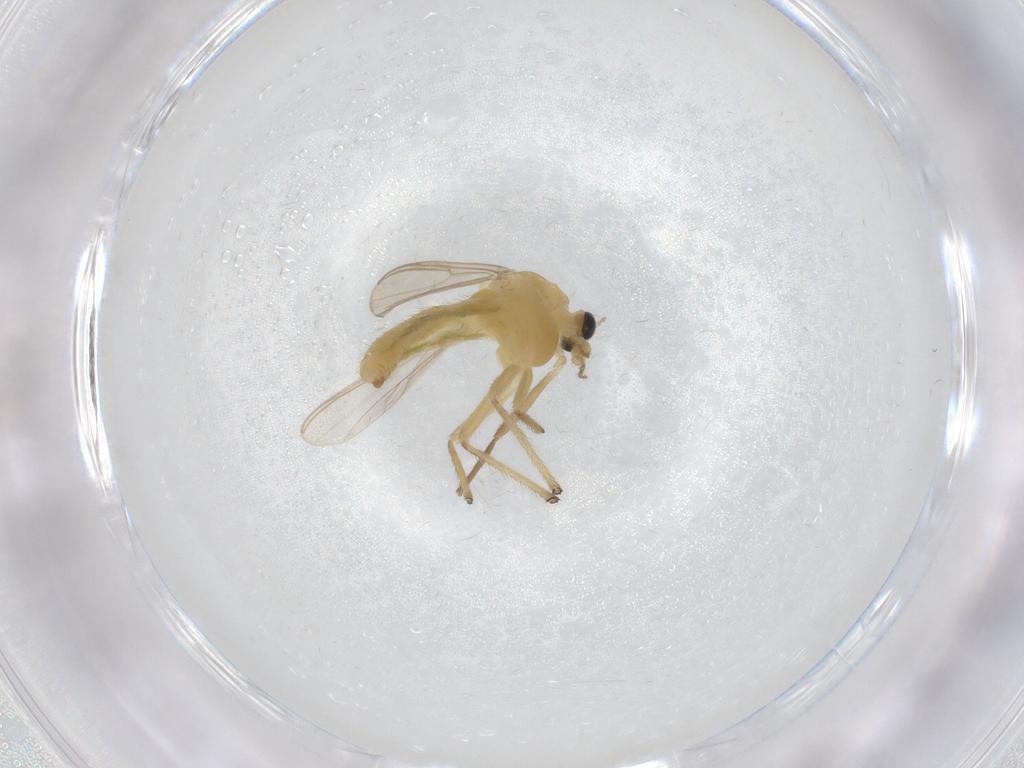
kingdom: Animalia
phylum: Arthropoda
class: Insecta
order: Diptera
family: Chironomidae
